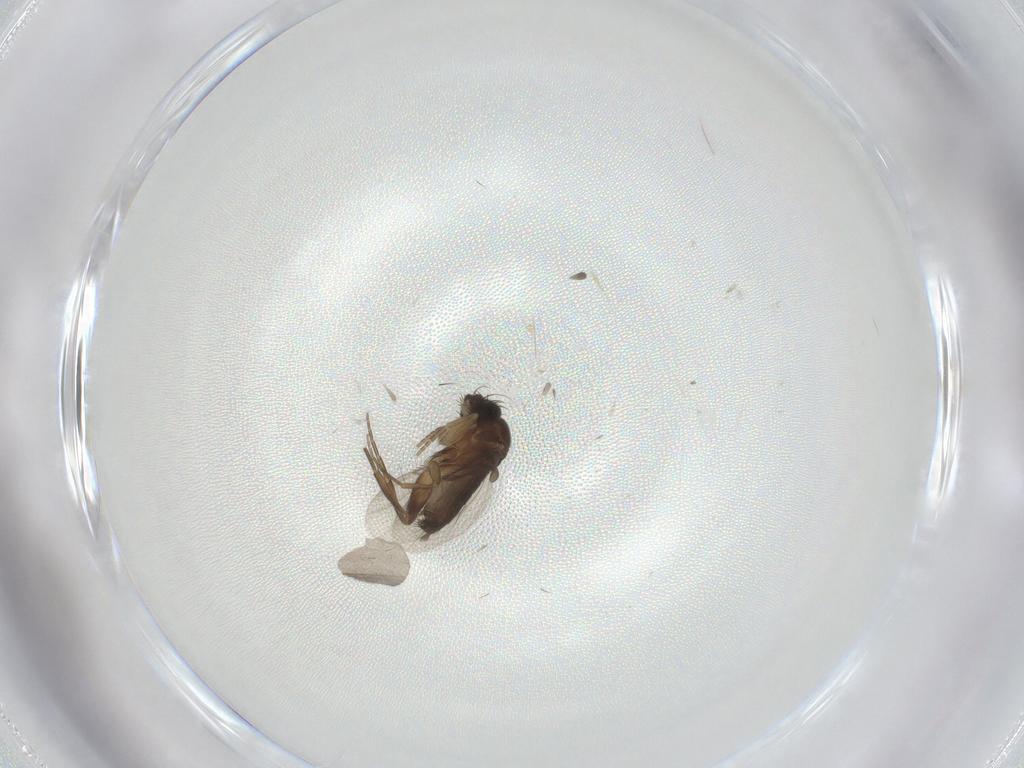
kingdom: Animalia
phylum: Arthropoda
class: Insecta
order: Diptera
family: Phoridae
